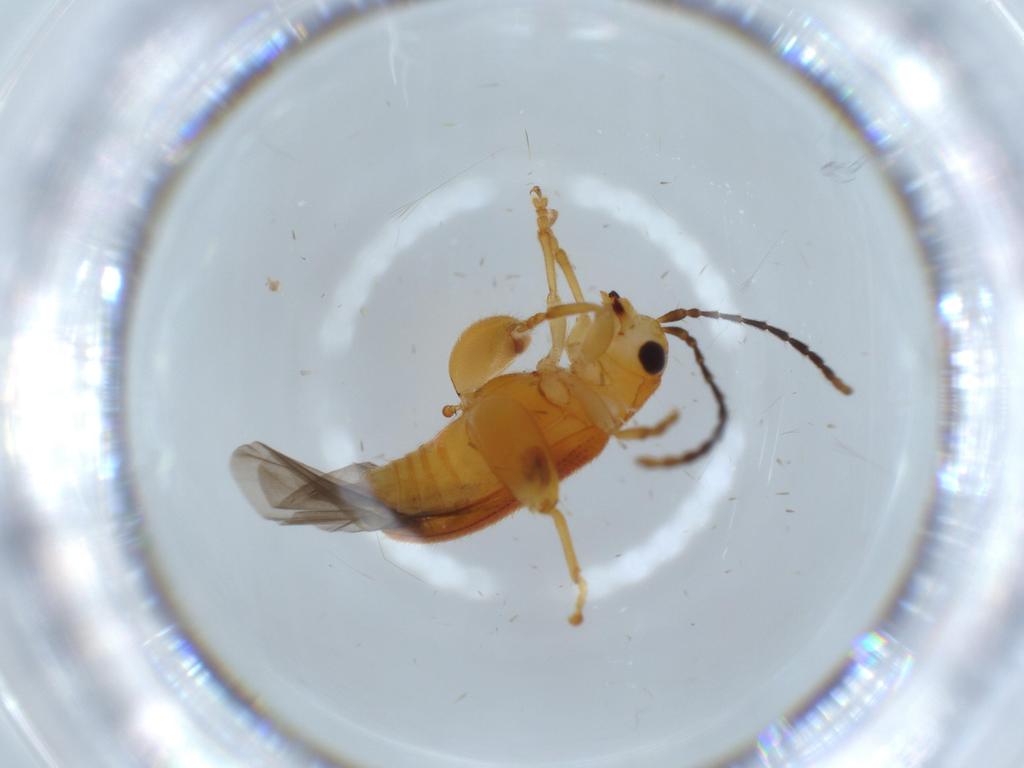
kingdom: Animalia
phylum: Arthropoda
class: Insecta
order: Coleoptera
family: Chrysomelidae
